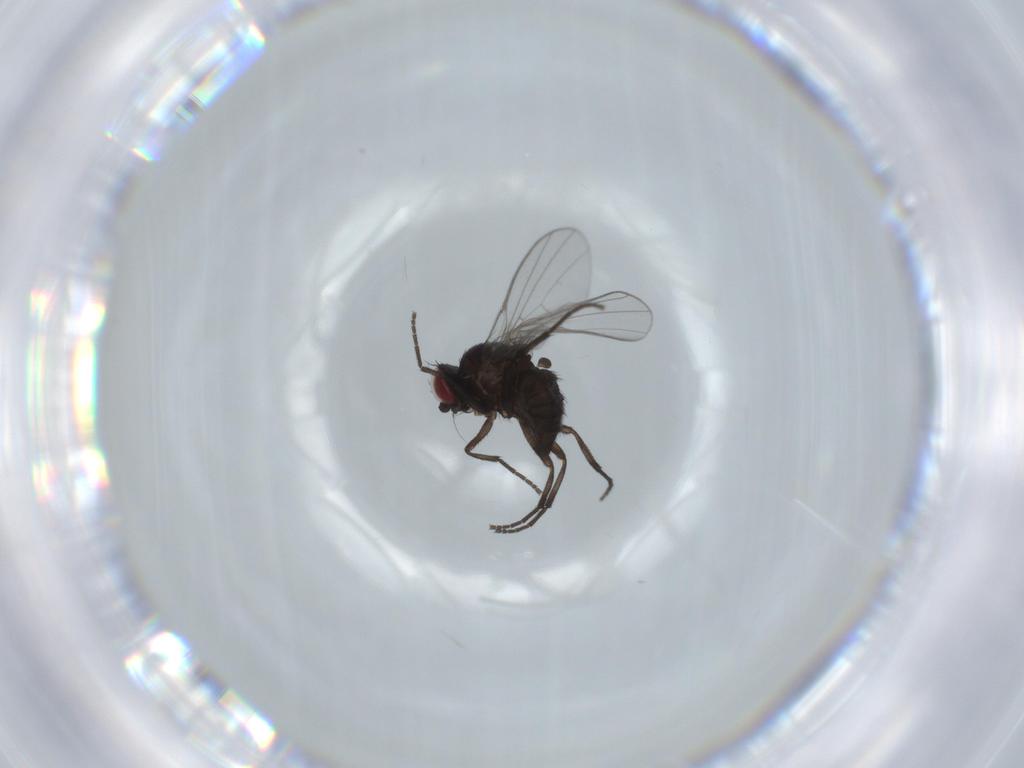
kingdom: Animalia
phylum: Arthropoda
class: Insecta
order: Diptera
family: Agromyzidae
